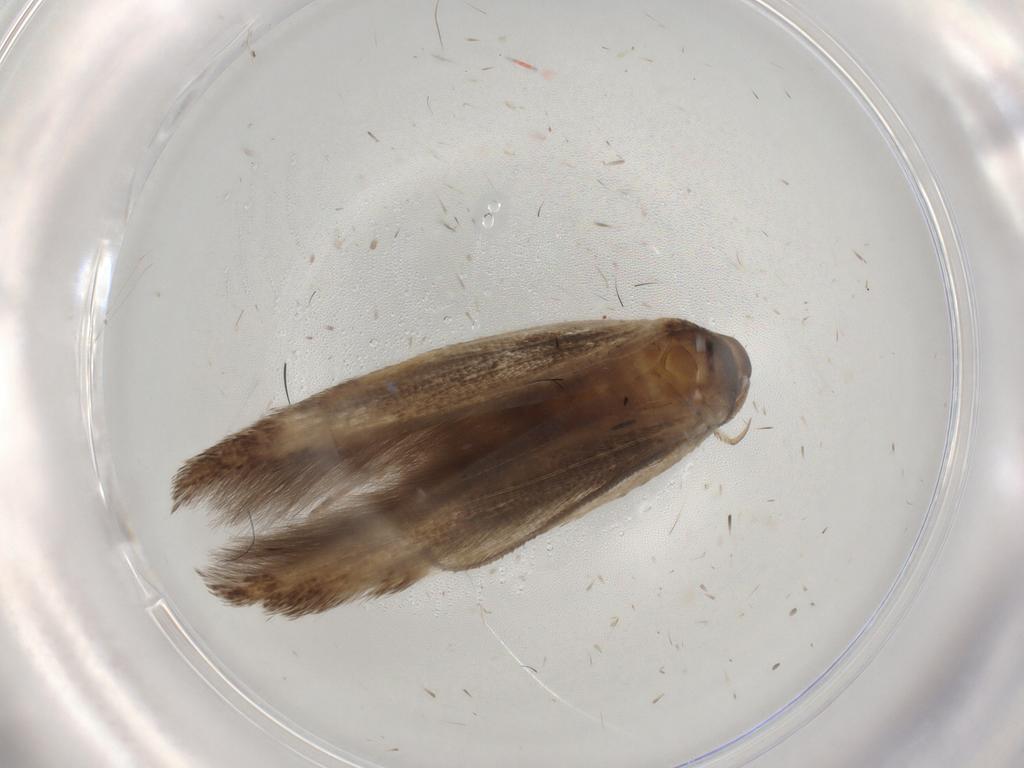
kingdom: Animalia
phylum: Arthropoda
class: Insecta
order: Lepidoptera
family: Cosmopterigidae
